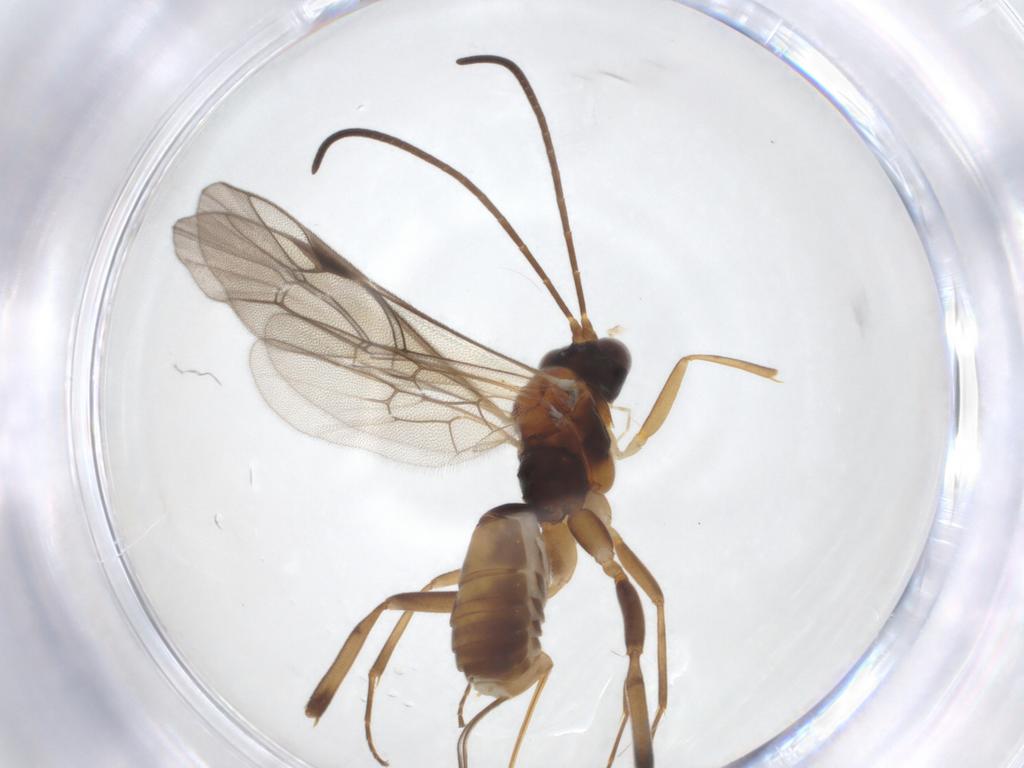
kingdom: Animalia
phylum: Arthropoda
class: Insecta
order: Hymenoptera
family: Ichneumonidae
